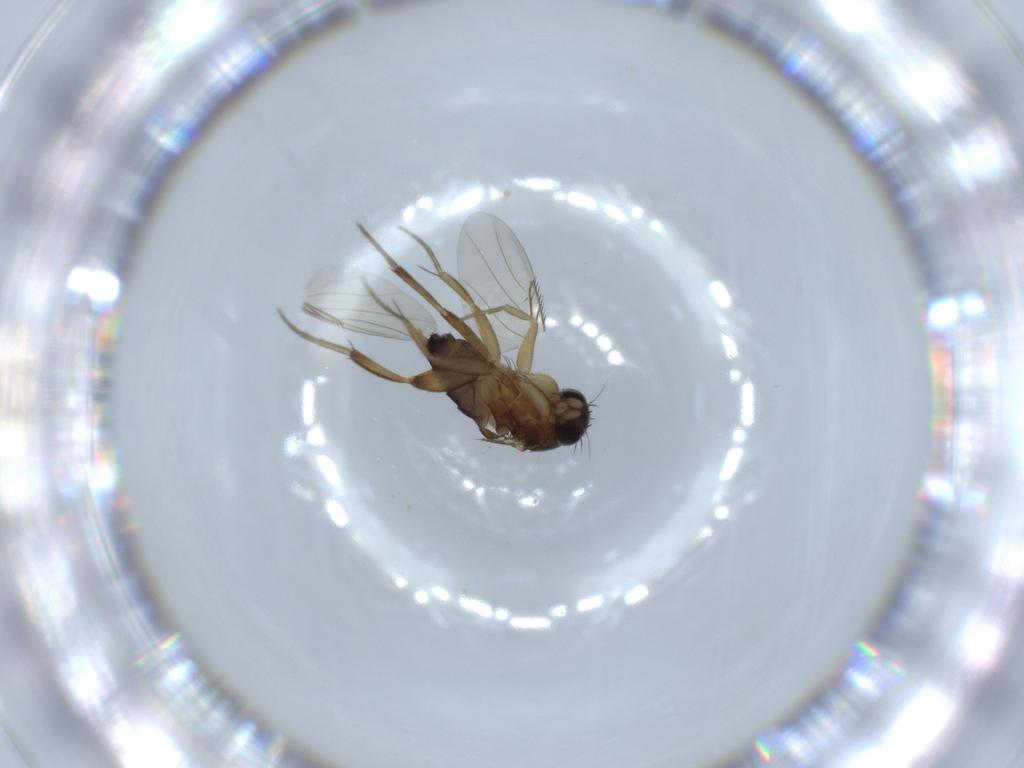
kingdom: Animalia
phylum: Arthropoda
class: Insecta
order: Diptera
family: Phoridae
